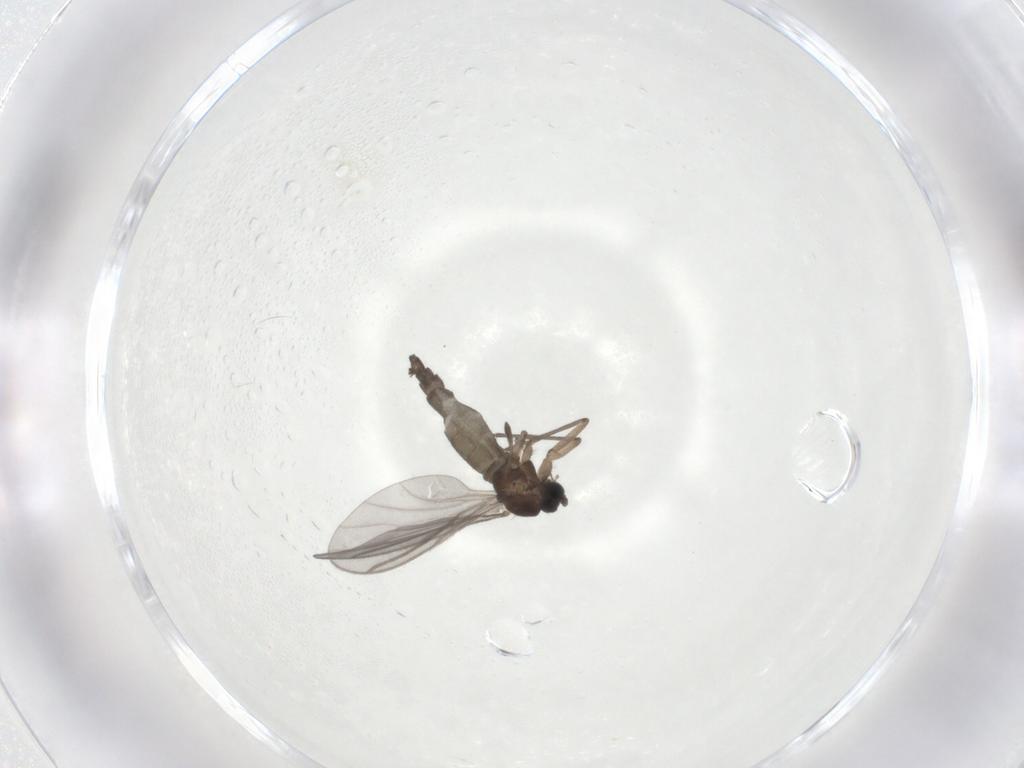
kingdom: Animalia
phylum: Arthropoda
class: Insecta
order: Diptera
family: Sciaridae
